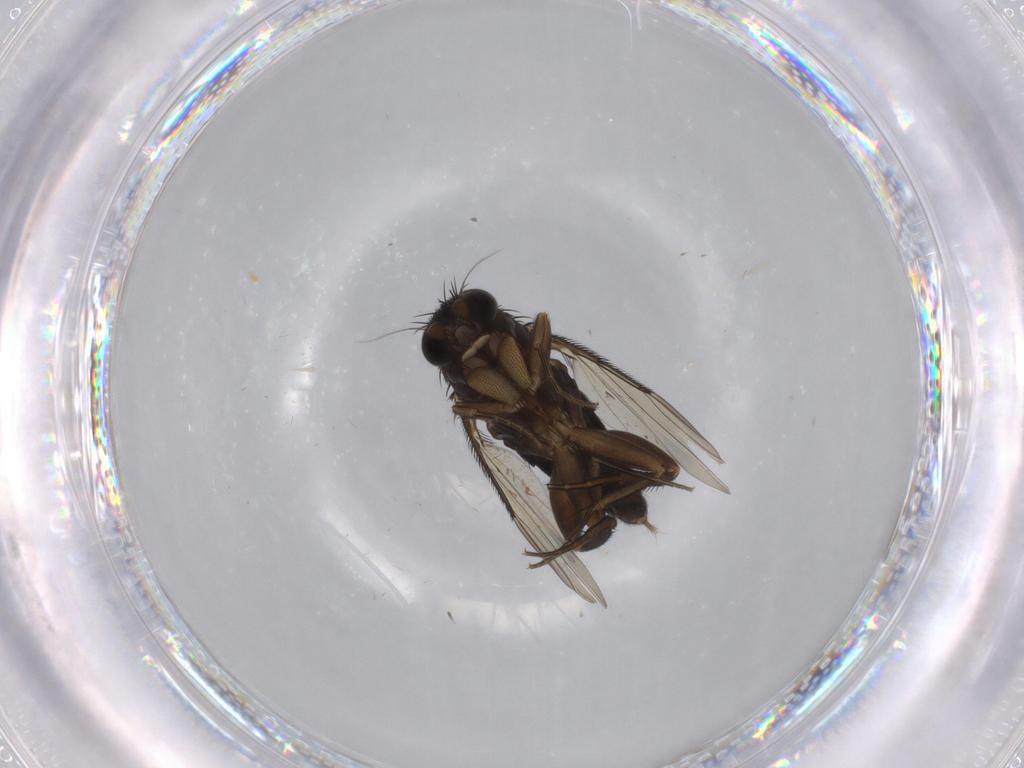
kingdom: Animalia
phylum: Arthropoda
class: Insecta
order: Diptera
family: Phoridae
